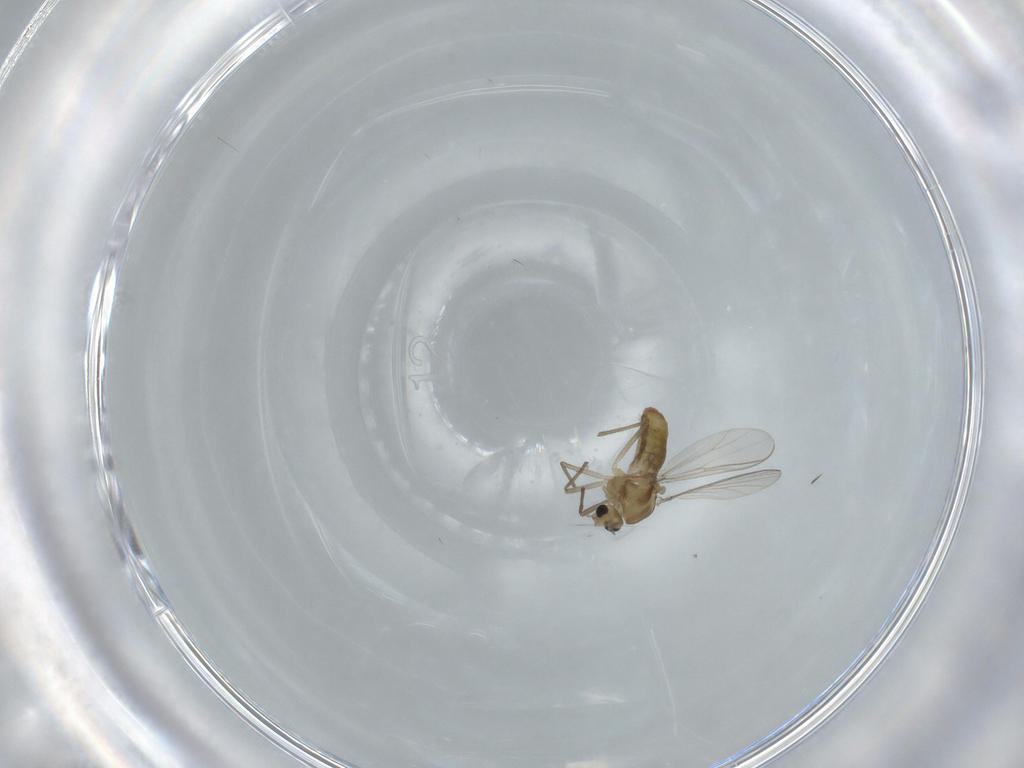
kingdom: Animalia
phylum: Arthropoda
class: Insecta
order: Diptera
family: Chironomidae
